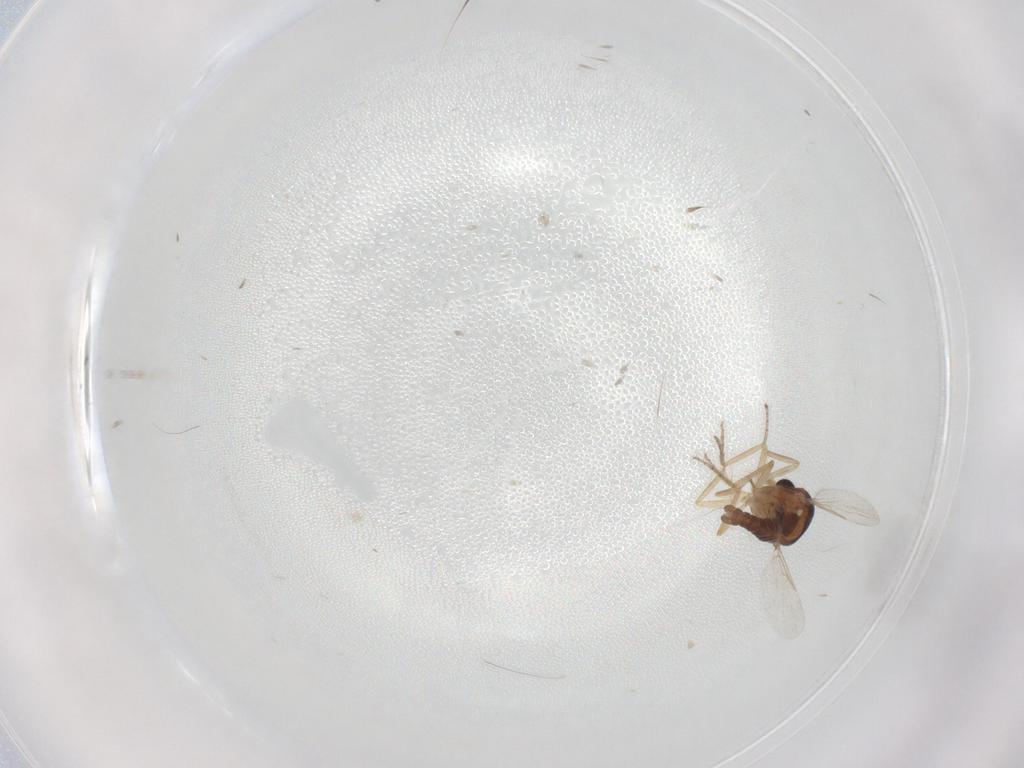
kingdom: Animalia
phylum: Arthropoda
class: Insecta
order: Diptera
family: Ceratopogonidae
